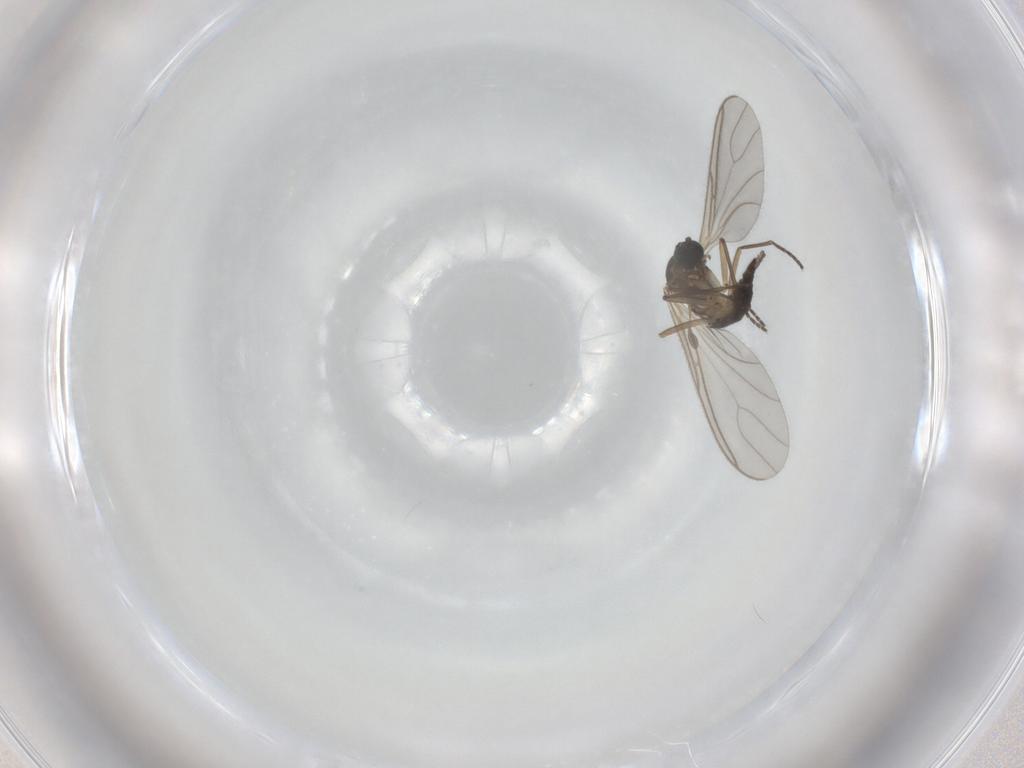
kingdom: Animalia
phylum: Arthropoda
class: Insecta
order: Diptera
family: Sciaridae
